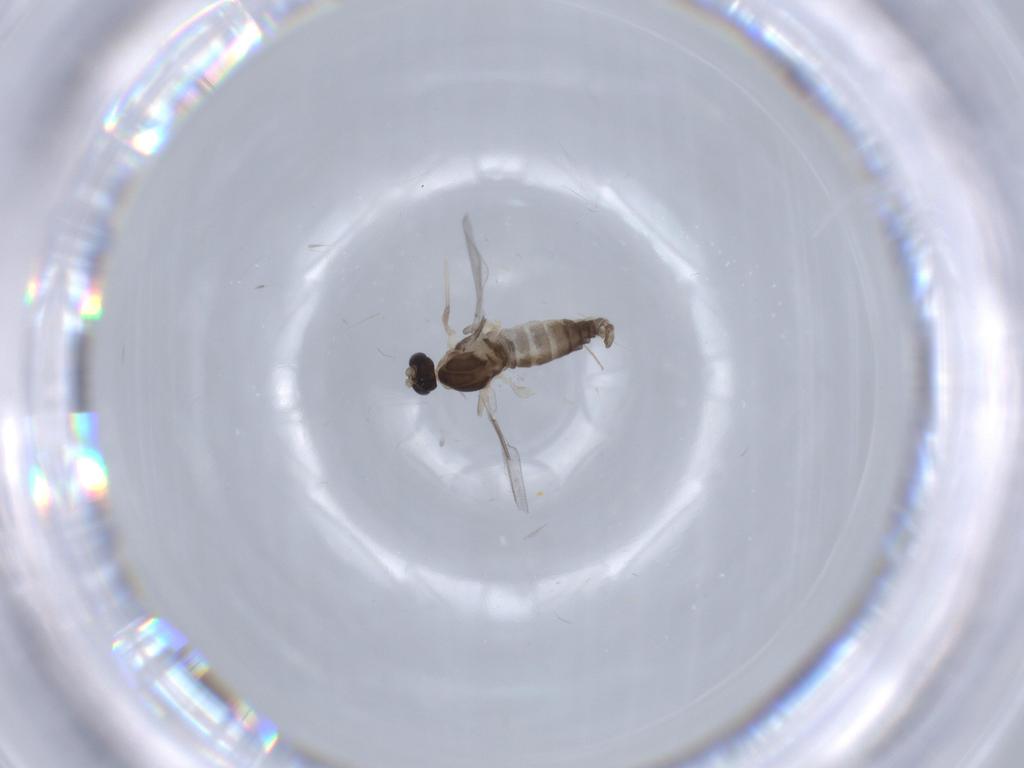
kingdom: Animalia
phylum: Arthropoda
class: Insecta
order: Diptera
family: Cecidomyiidae
